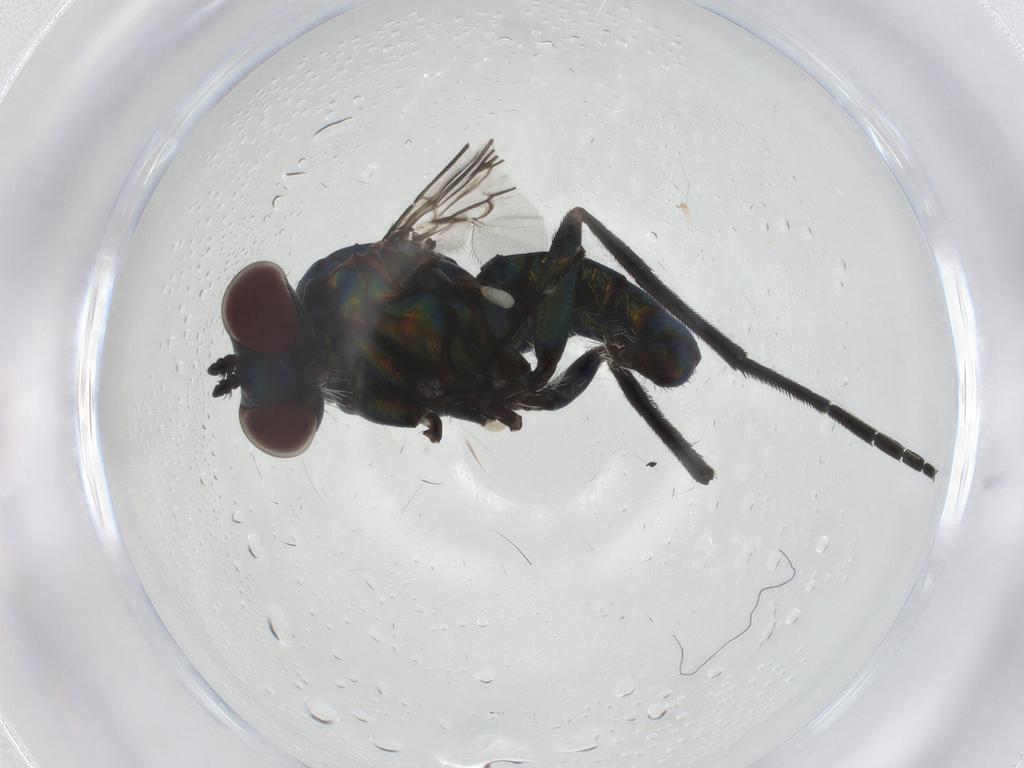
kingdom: Animalia
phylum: Arthropoda
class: Insecta
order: Diptera
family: Dolichopodidae
